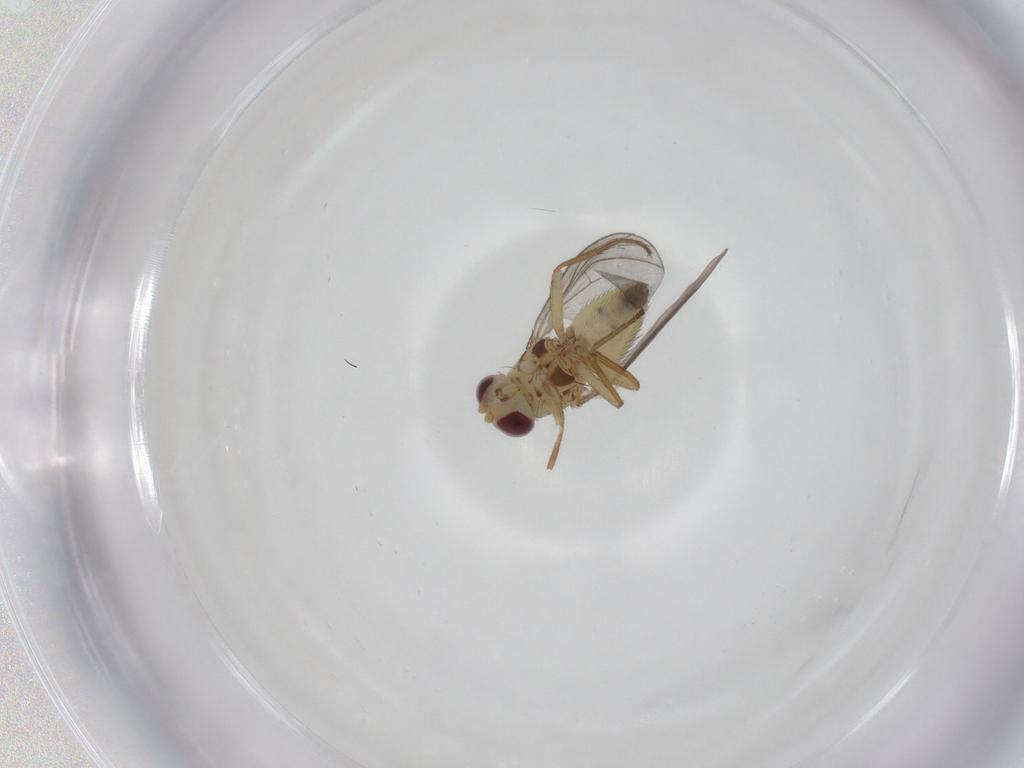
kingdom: Animalia
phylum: Arthropoda
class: Insecta
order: Diptera
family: Agromyzidae
